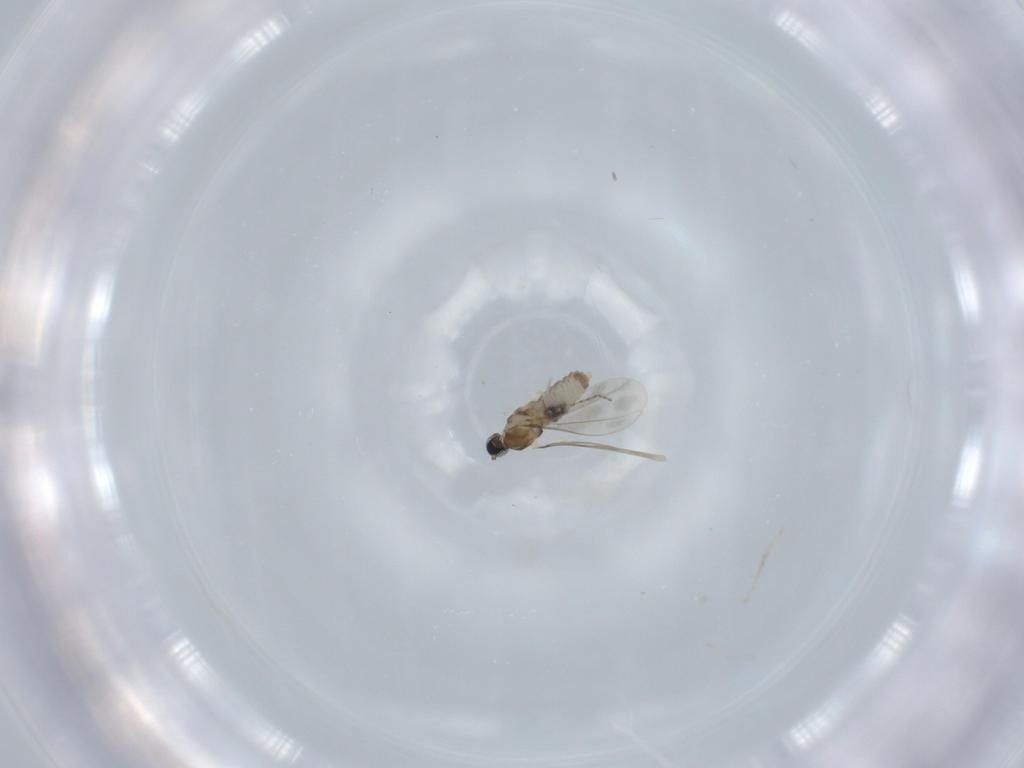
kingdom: Animalia
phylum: Arthropoda
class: Insecta
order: Diptera
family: Cecidomyiidae
